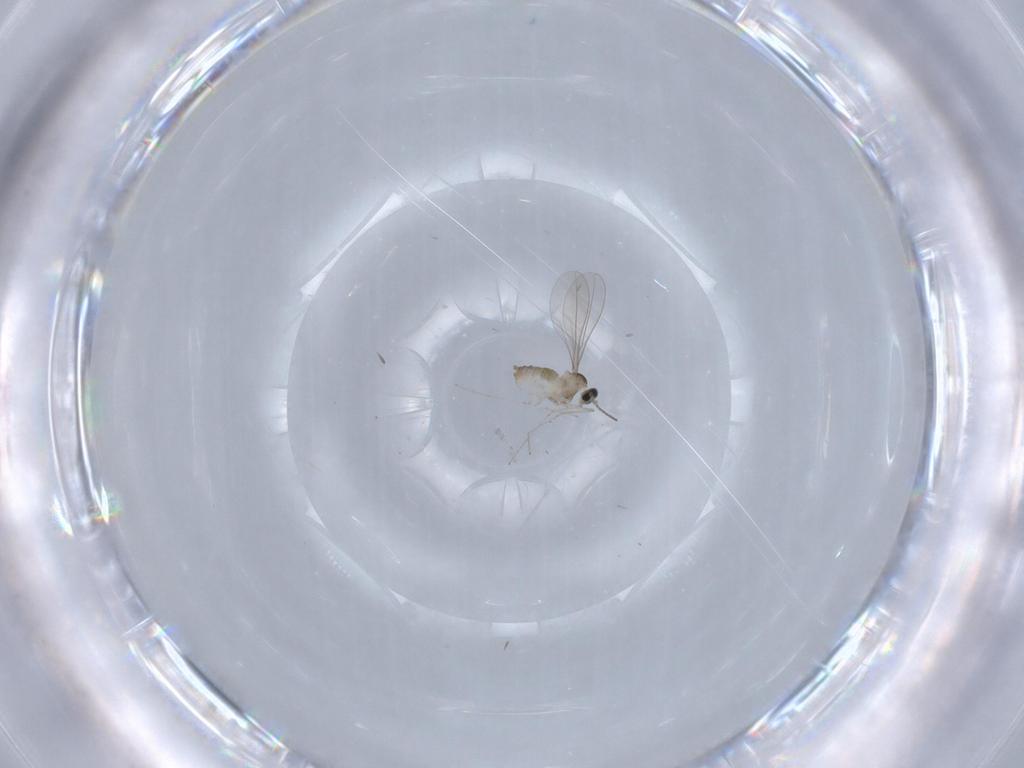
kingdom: Animalia
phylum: Arthropoda
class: Insecta
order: Diptera
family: Cecidomyiidae
